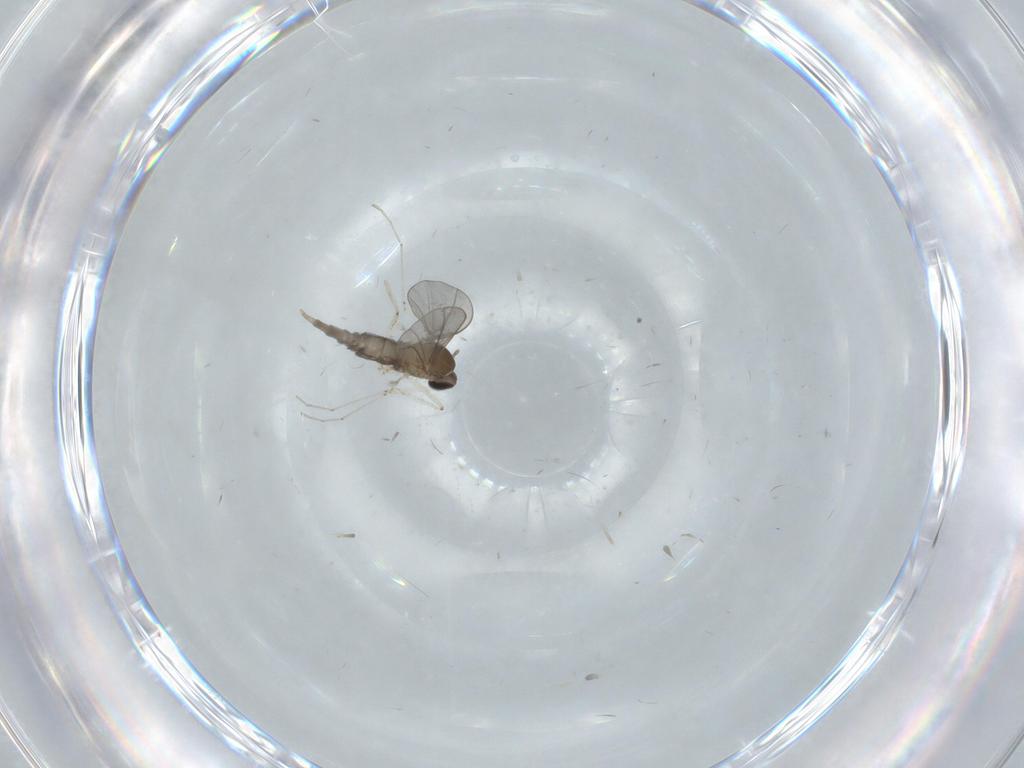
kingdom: Animalia
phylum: Arthropoda
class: Insecta
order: Diptera
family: Cecidomyiidae
